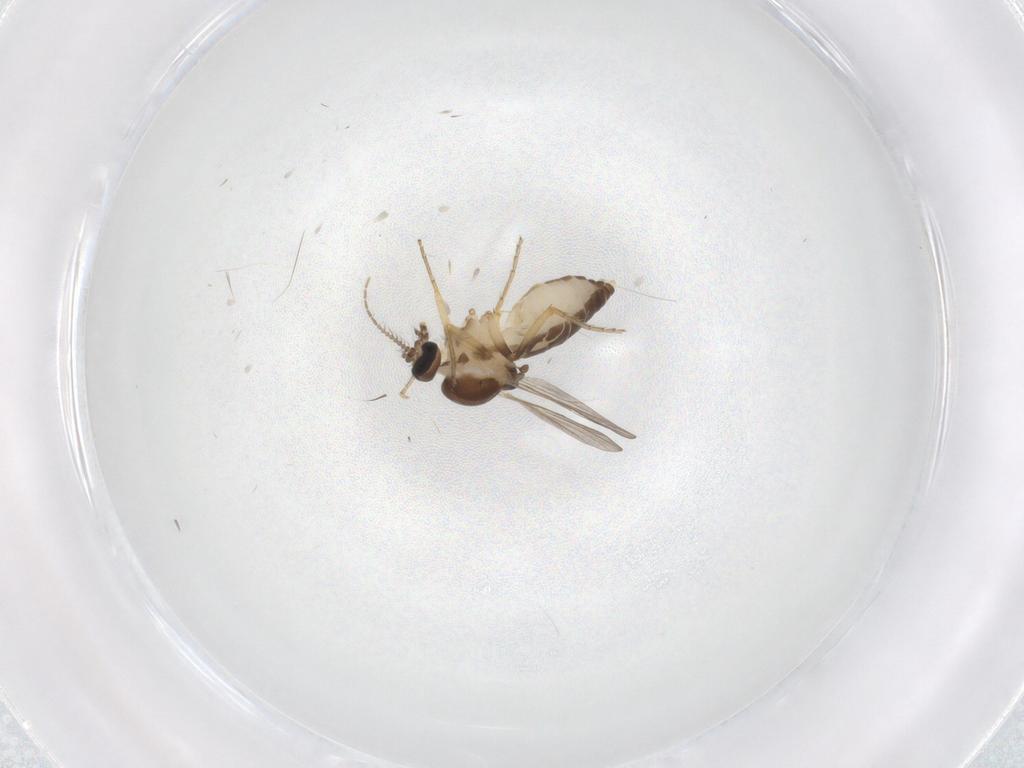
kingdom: Animalia
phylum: Arthropoda
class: Insecta
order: Diptera
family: Ceratopogonidae
